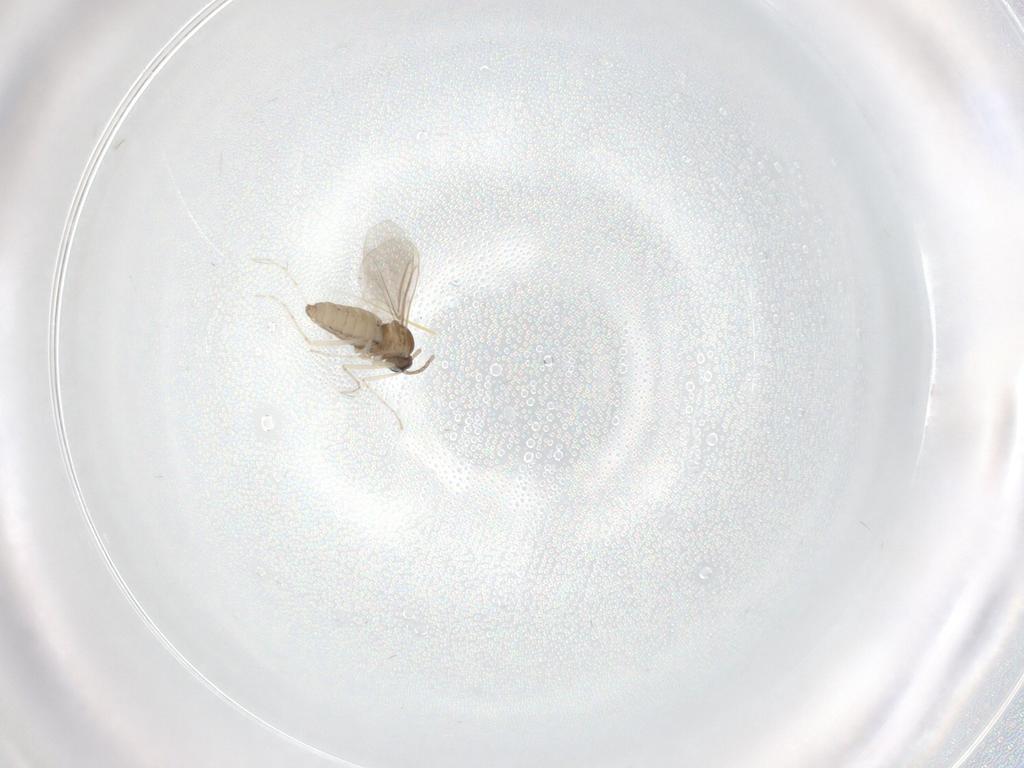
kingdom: Animalia
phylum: Arthropoda
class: Insecta
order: Diptera
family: Cecidomyiidae
